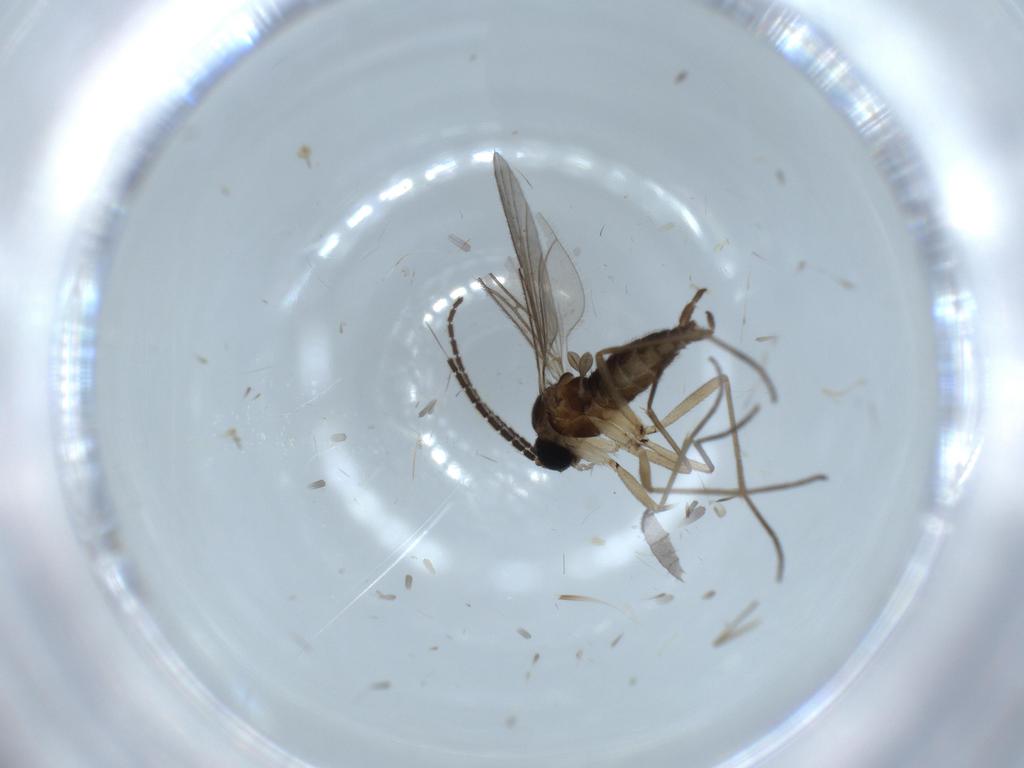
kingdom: Animalia
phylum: Arthropoda
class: Insecta
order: Diptera
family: Sciaridae
